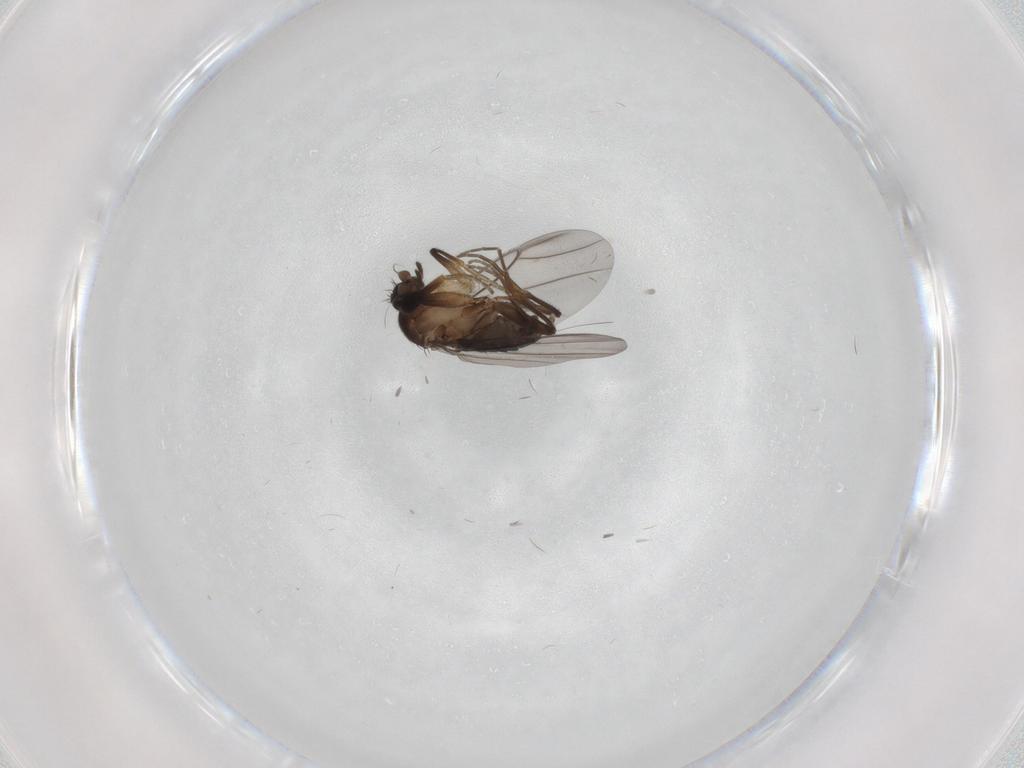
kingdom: Animalia
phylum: Arthropoda
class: Insecta
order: Diptera
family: Phoridae
